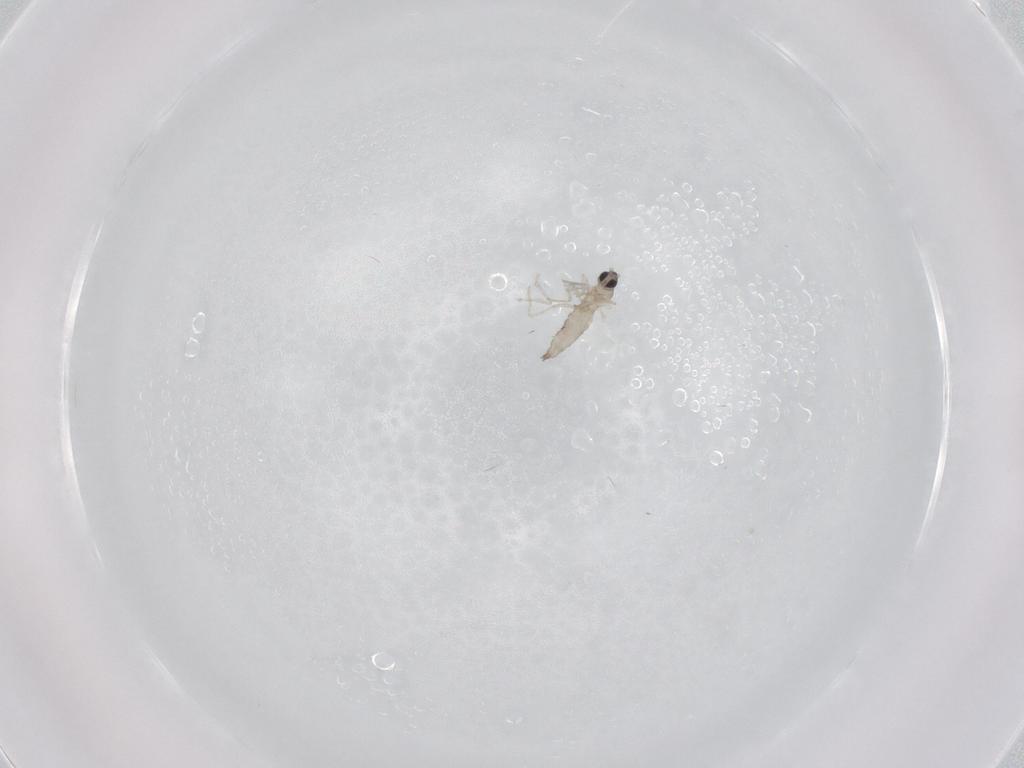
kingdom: Animalia
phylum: Arthropoda
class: Insecta
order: Diptera
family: Cecidomyiidae
